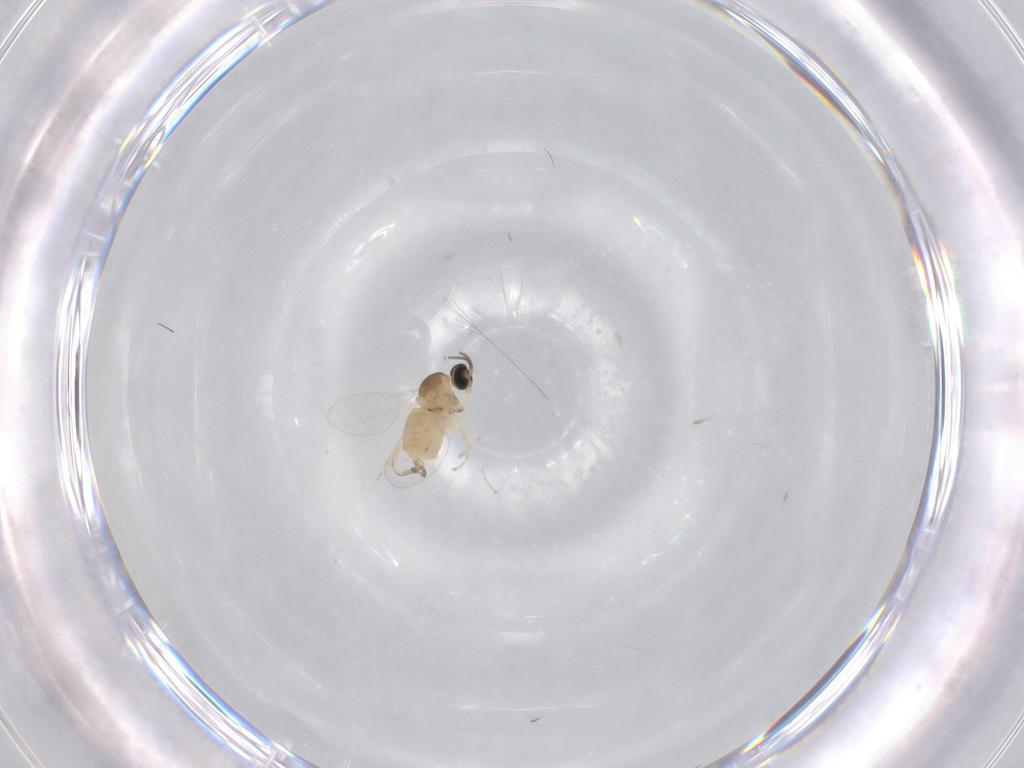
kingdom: Animalia
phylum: Arthropoda
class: Insecta
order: Diptera
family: Cecidomyiidae
